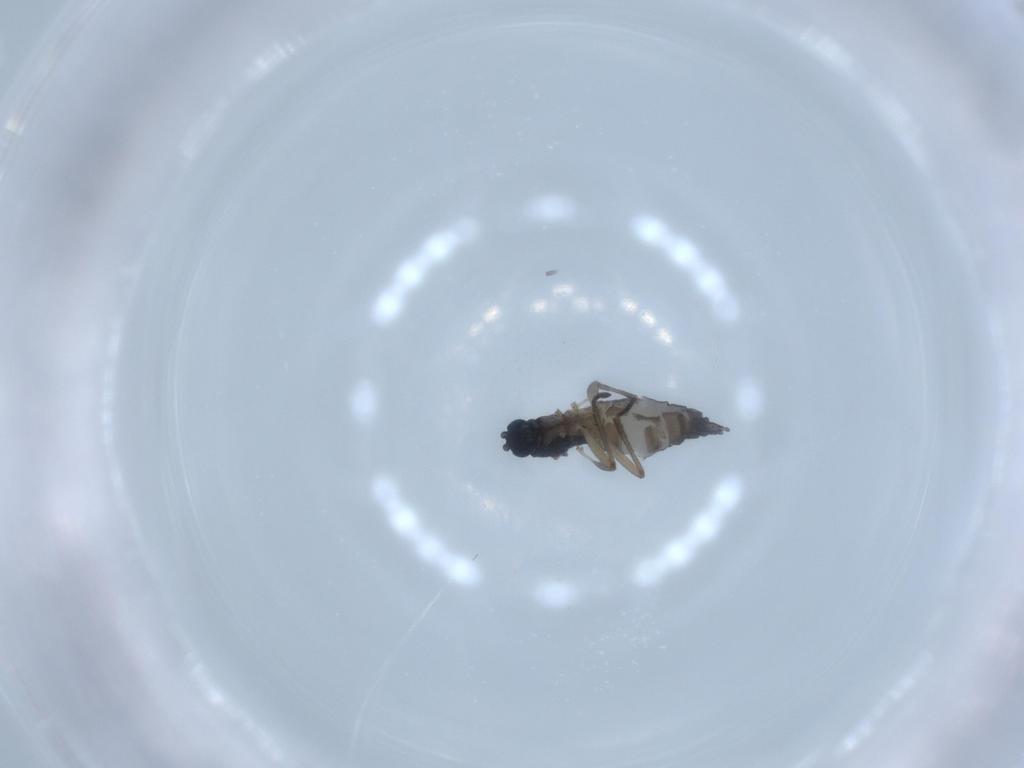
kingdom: Animalia
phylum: Arthropoda
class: Insecta
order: Diptera
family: Sciaridae
